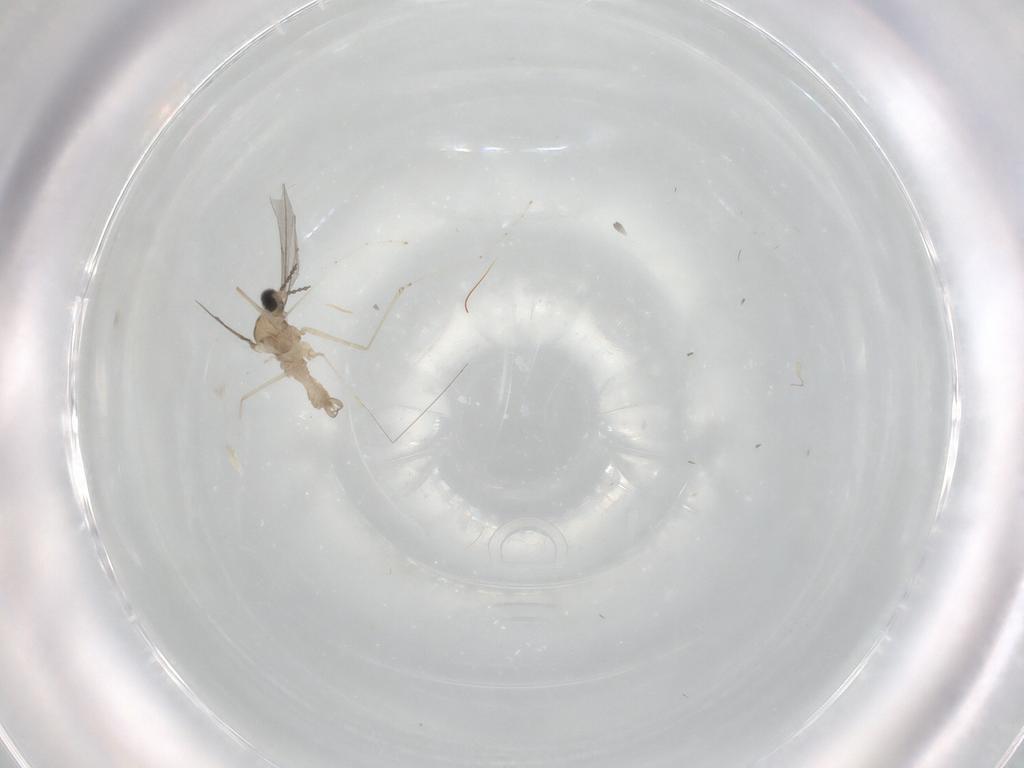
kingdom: Animalia
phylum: Arthropoda
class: Insecta
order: Diptera
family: Cecidomyiidae
